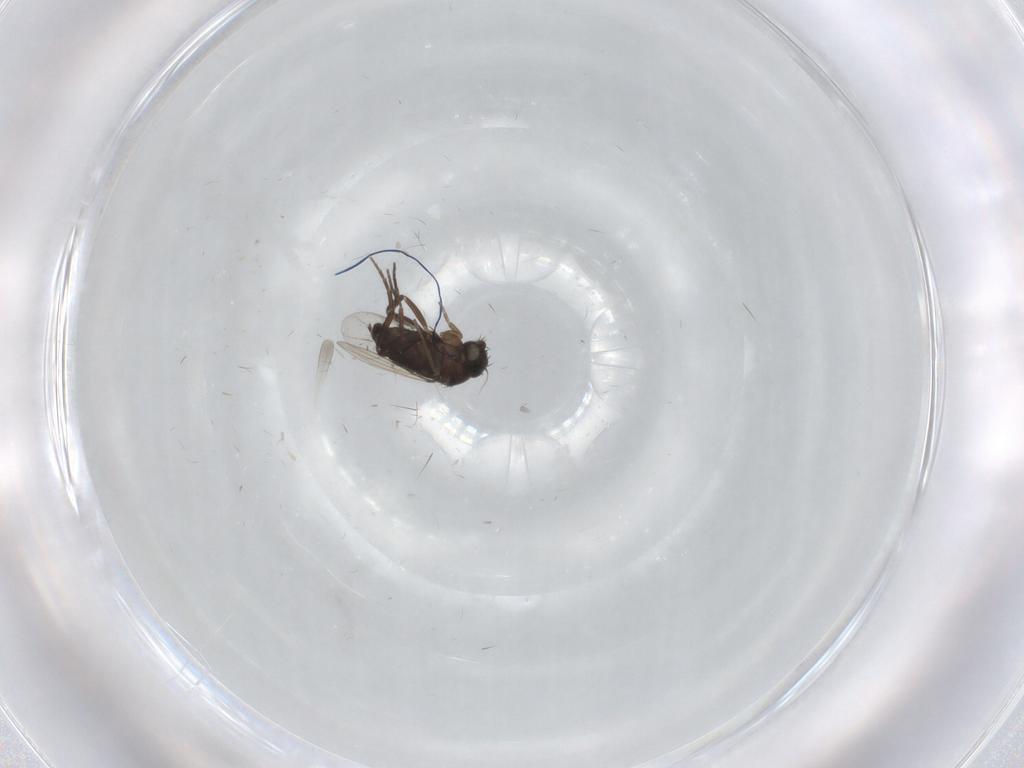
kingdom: Animalia
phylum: Arthropoda
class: Insecta
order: Diptera
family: Phoridae
